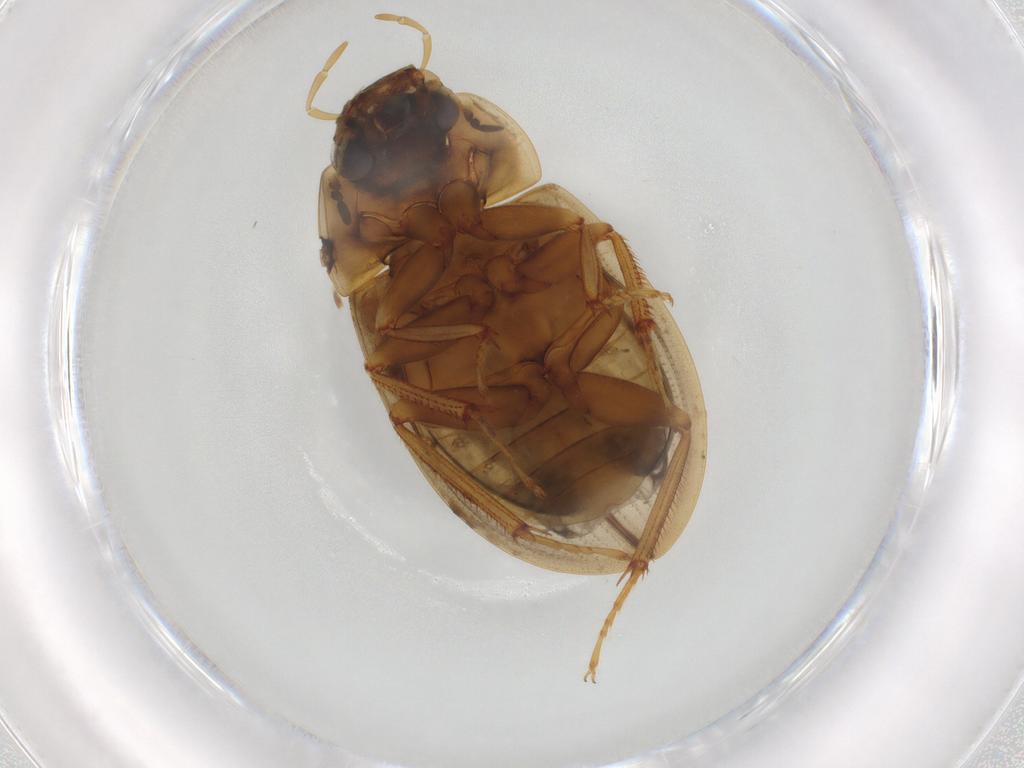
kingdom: Animalia
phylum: Arthropoda
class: Insecta
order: Coleoptera
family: Hydrophilidae
